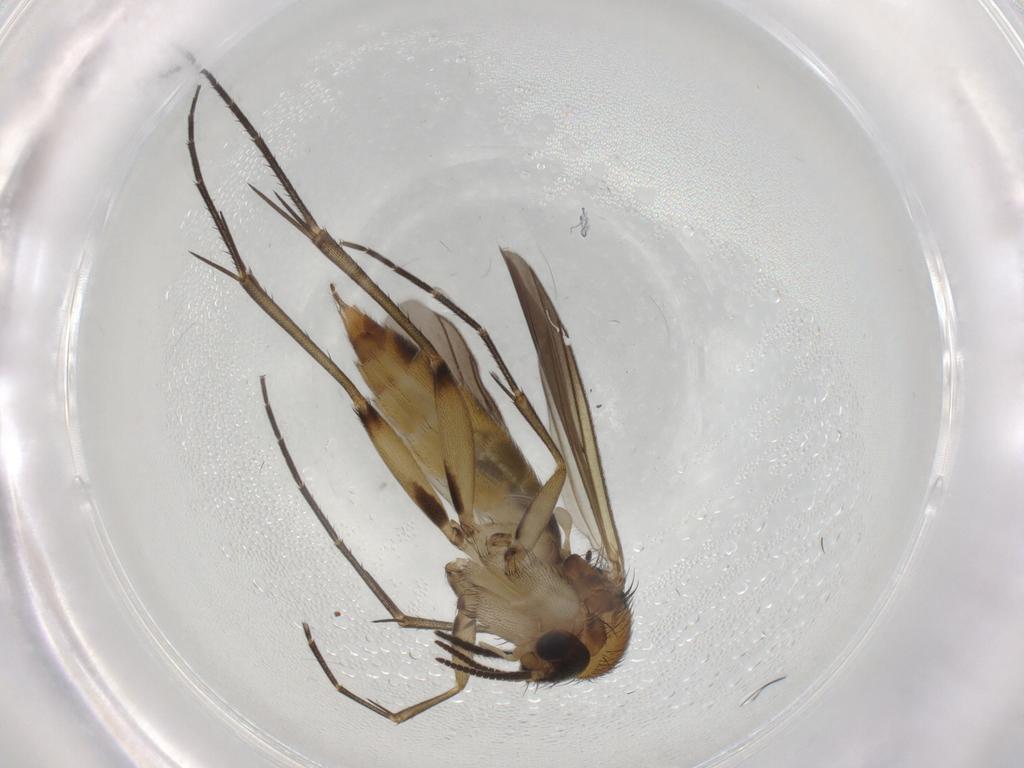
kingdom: Animalia
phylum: Arthropoda
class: Insecta
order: Diptera
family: Mycetophilidae
